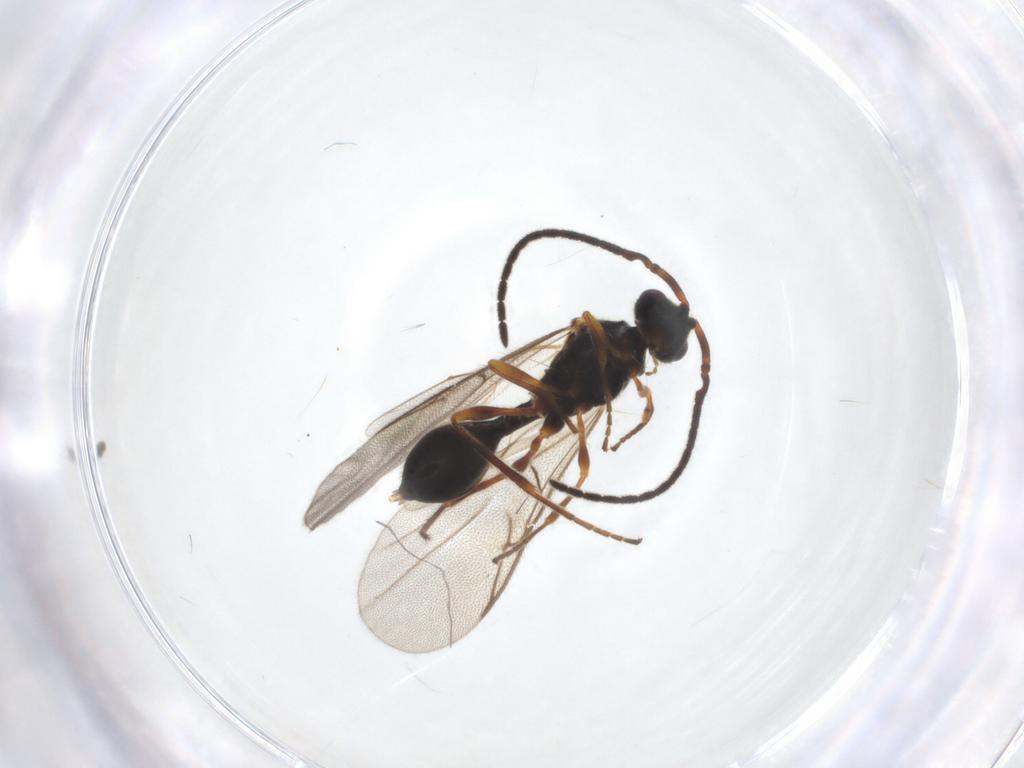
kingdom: Animalia
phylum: Arthropoda
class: Insecta
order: Hymenoptera
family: Diapriidae
